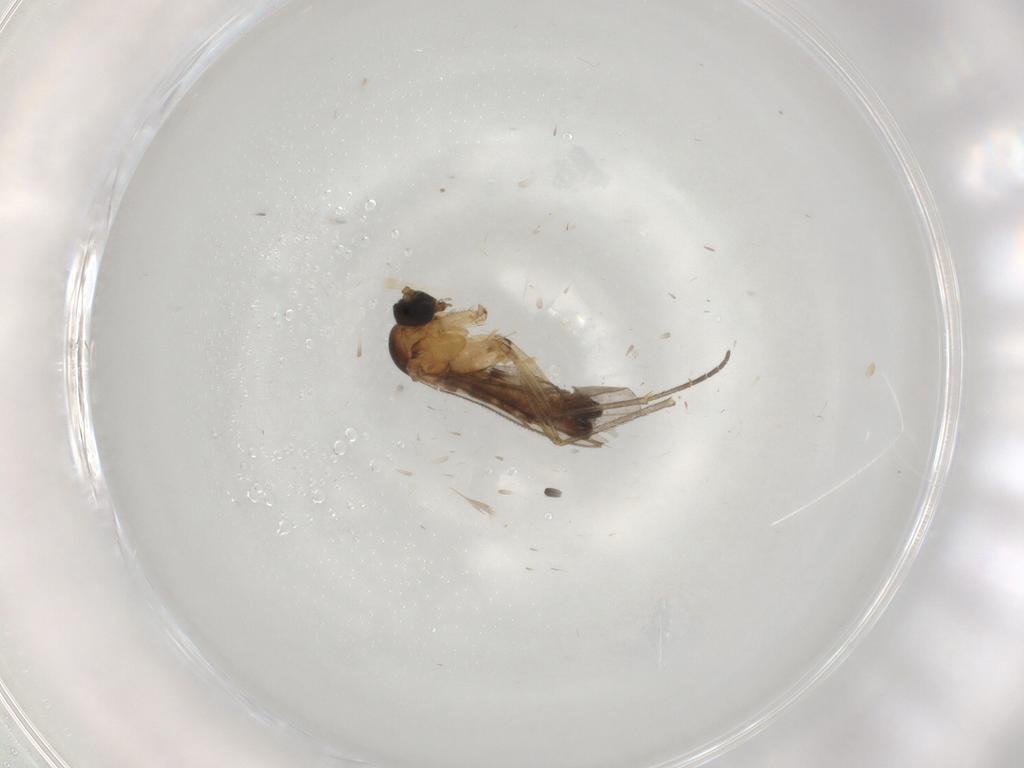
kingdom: Animalia
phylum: Arthropoda
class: Insecta
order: Diptera
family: Sciaridae
